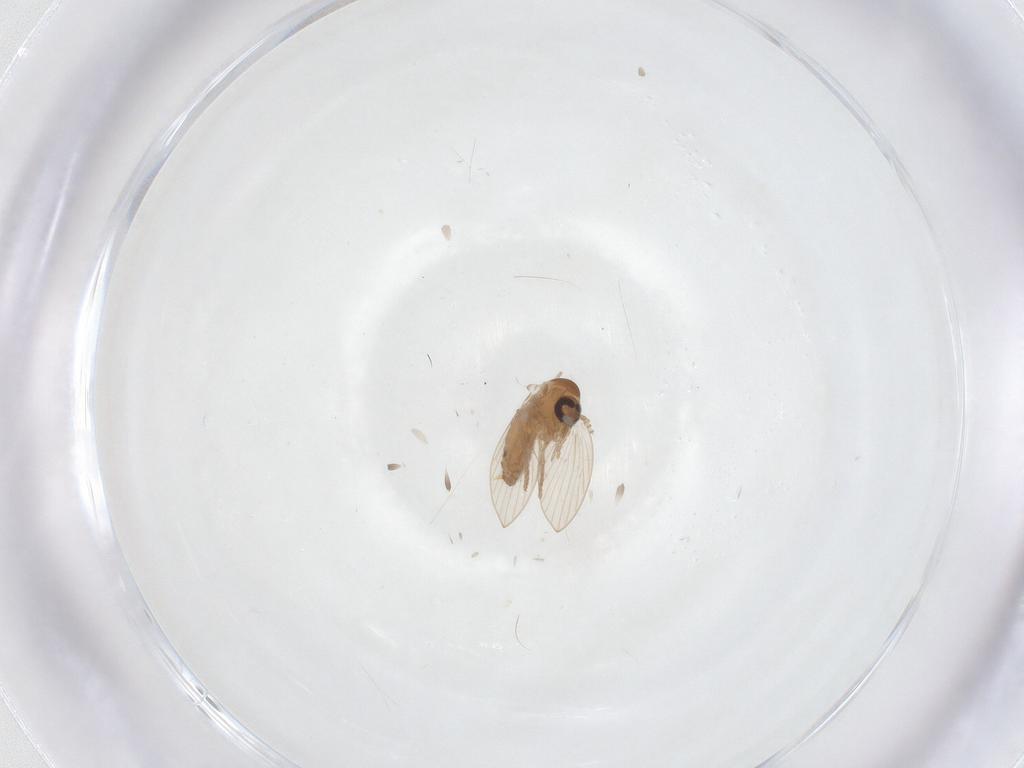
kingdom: Animalia
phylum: Arthropoda
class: Insecta
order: Diptera
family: Psychodidae
